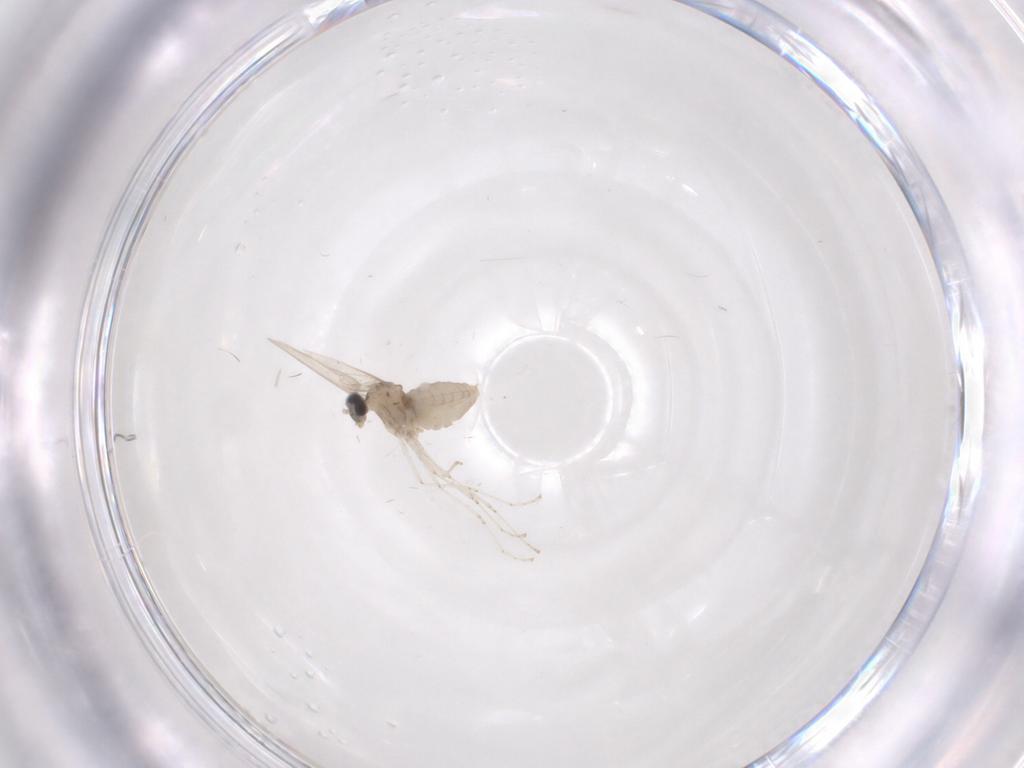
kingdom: Animalia
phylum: Arthropoda
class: Insecta
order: Diptera
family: Cecidomyiidae
